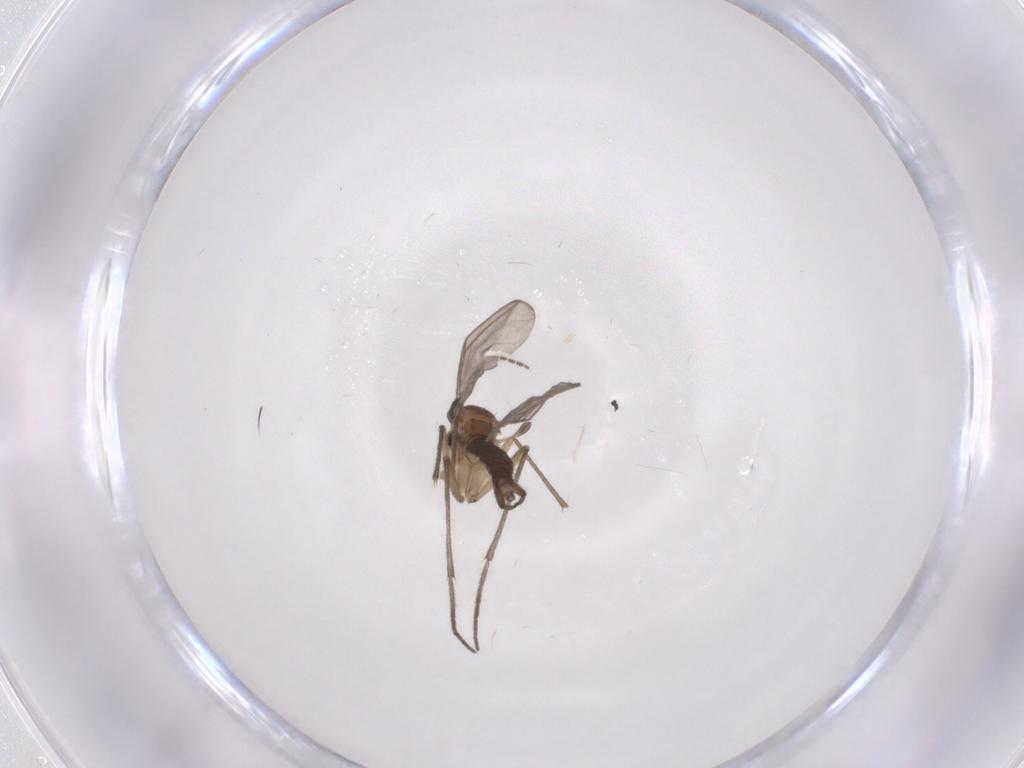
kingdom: Animalia
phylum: Arthropoda
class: Insecta
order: Diptera
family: Sciaridae
